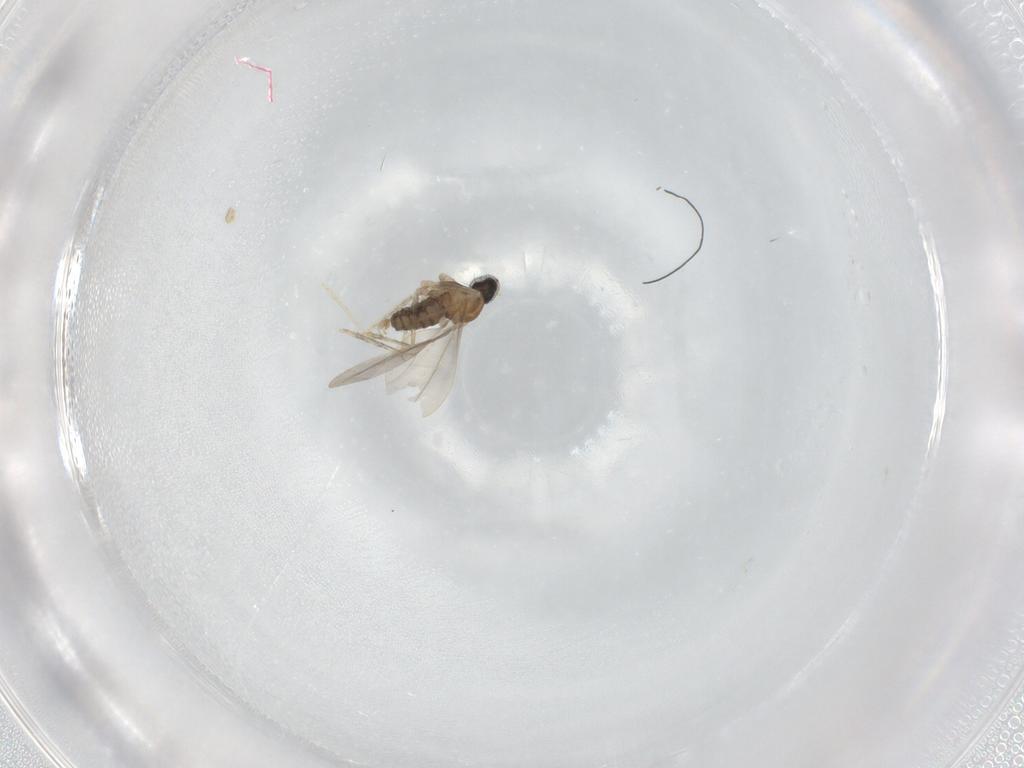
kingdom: Animalia
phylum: Arthropoda
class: Insecta
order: Diptera
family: Cecidomyiidae
